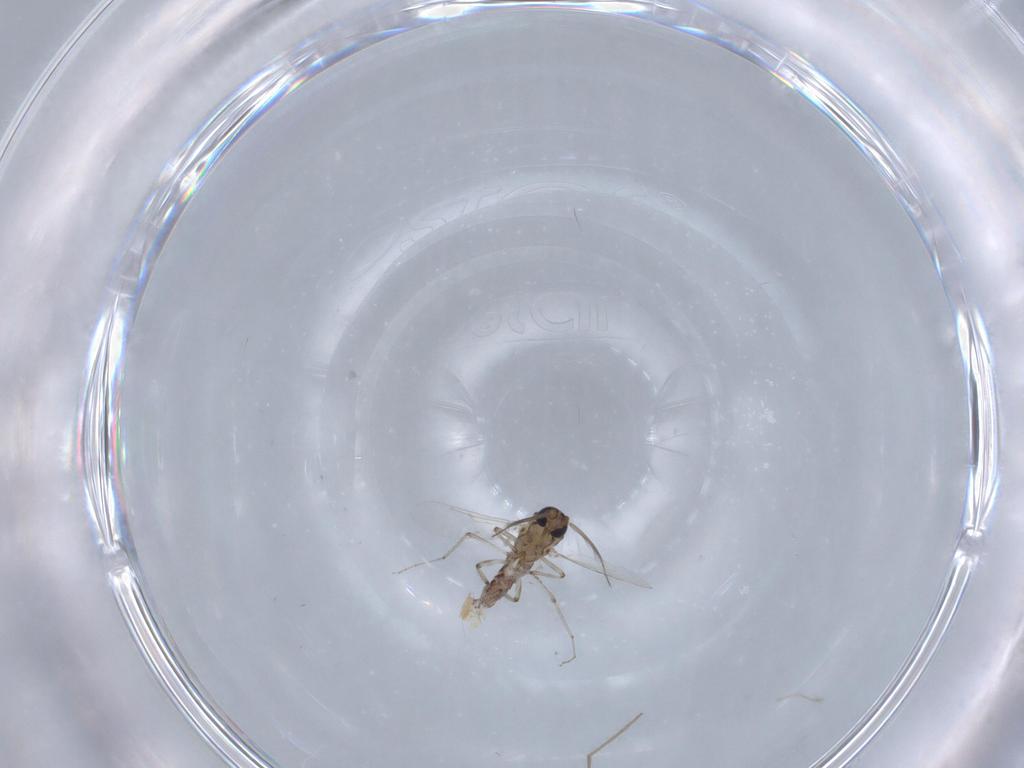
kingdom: Animalia
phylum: Arthropoda
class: Insecta
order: Diptera
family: Ceratopogonidae
